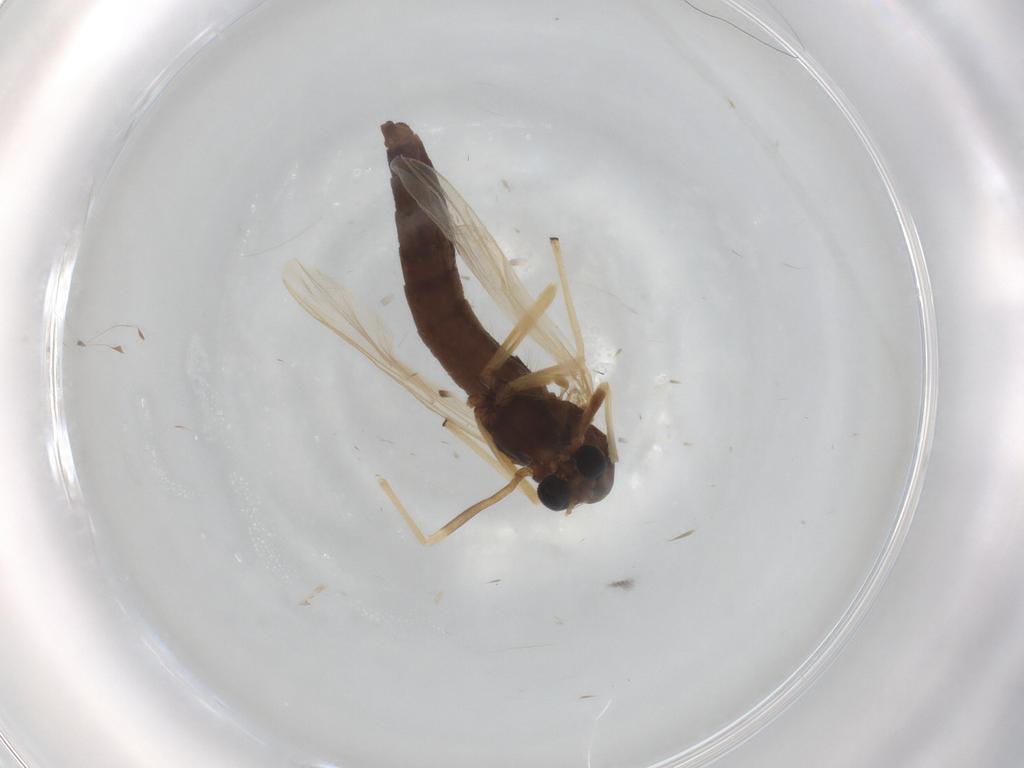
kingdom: Animalia
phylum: Arthropoda
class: Insecta
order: Diptera
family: Chironomidae
